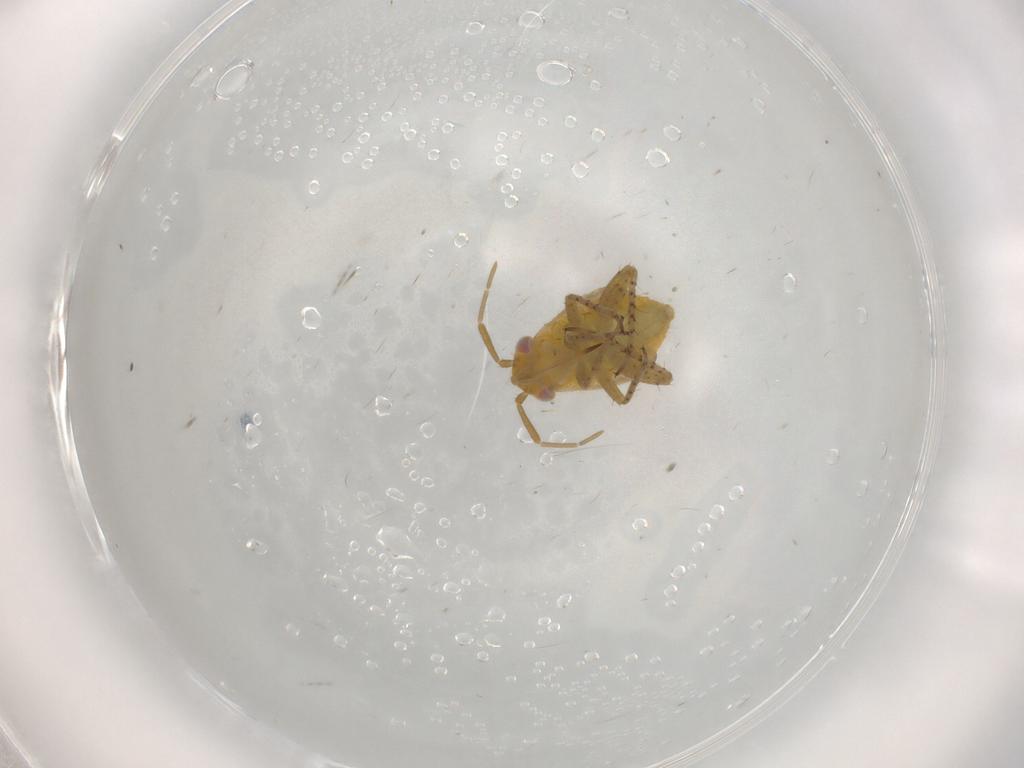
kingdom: Animalia
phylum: Arthropoda
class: Insecta
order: Hemiptera
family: Miridae
